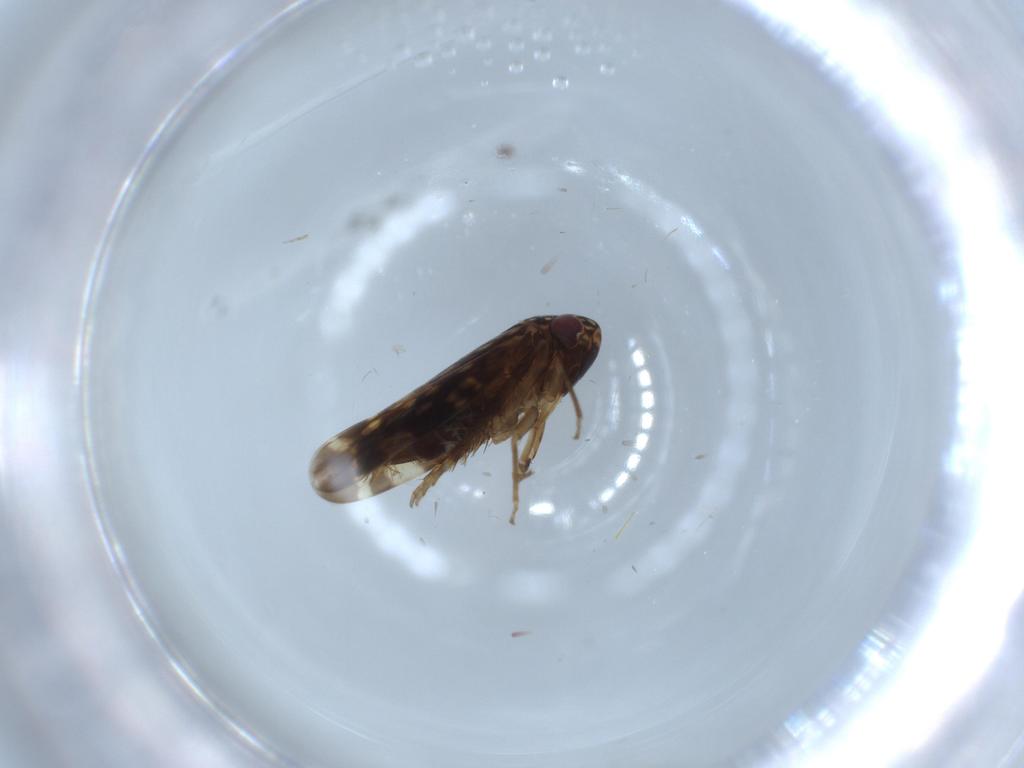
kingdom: Animalia
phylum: Arthropoda
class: Insecta
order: Hemiptera
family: Cicadellidae
